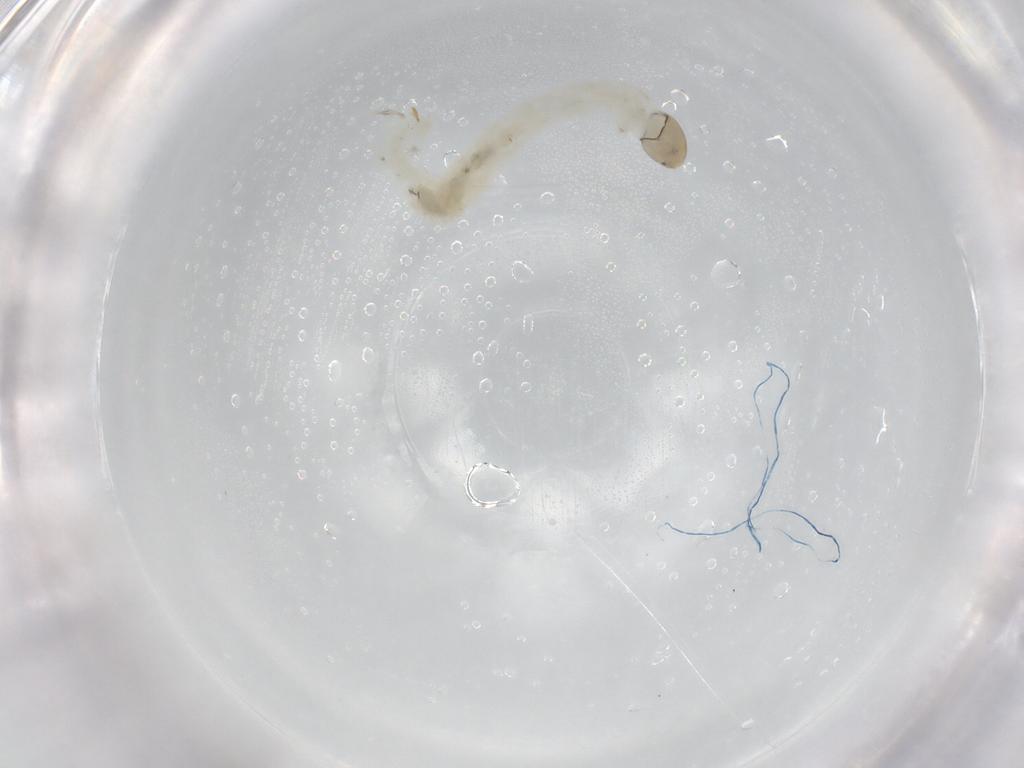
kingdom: Animalia
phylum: Arthropoda
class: Insecta
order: Diptera
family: Chironomidae
